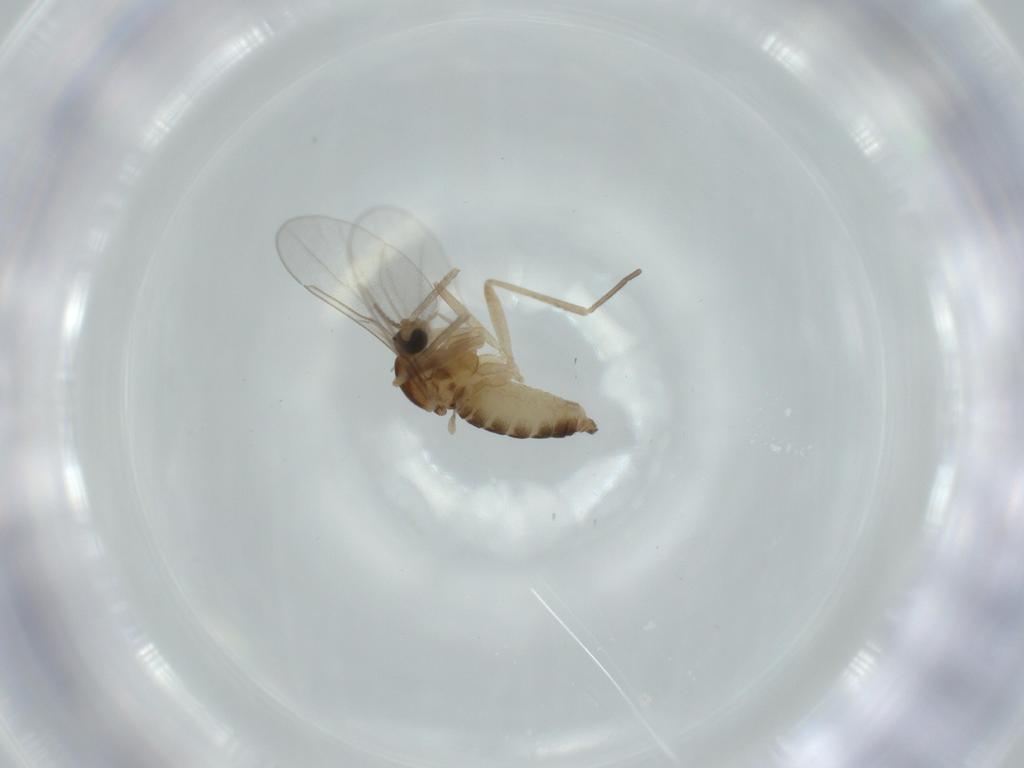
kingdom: Animalia
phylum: Arthropoda
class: Insecta
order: Diptera
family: Cecidomyiidae
